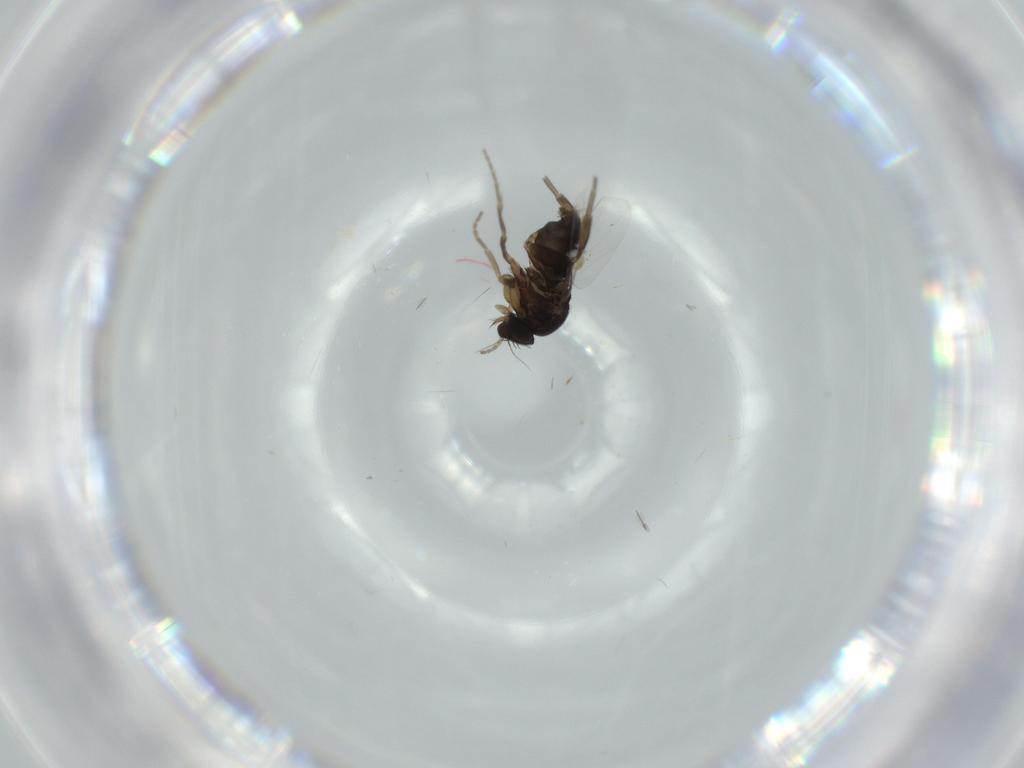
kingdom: Animalia
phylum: Arthropoda
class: Insecta
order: Diptera
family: Phoridae
